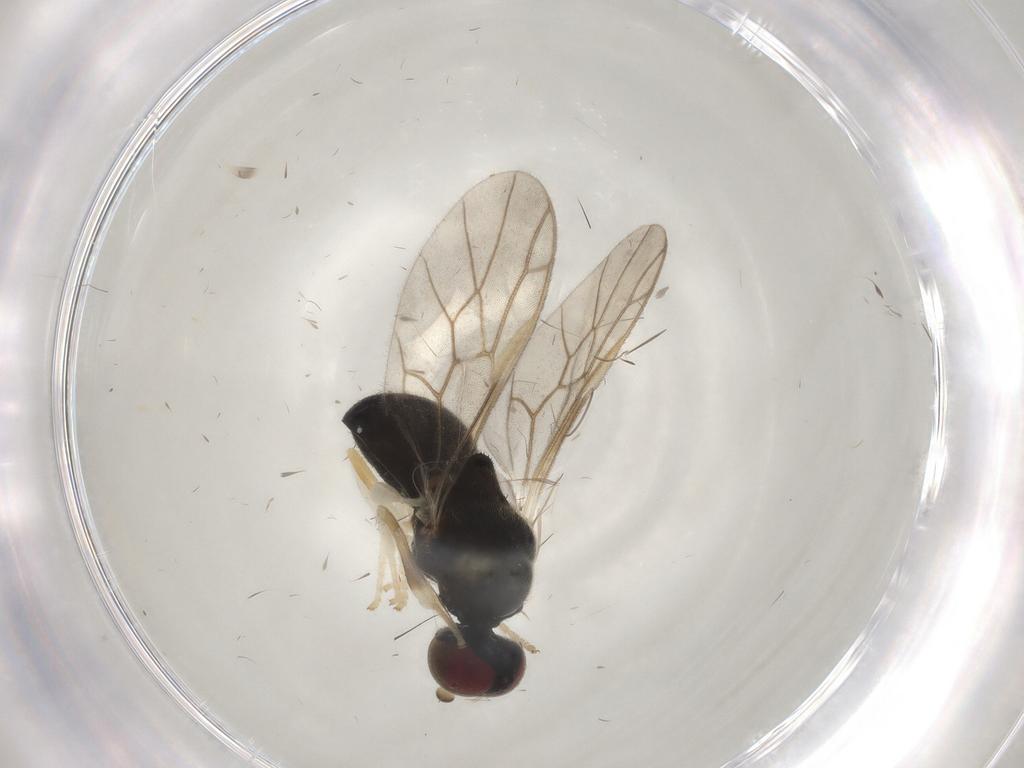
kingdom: Animalia
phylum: Arthropoda
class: Insecta
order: Diptera
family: Stratiomyidae
